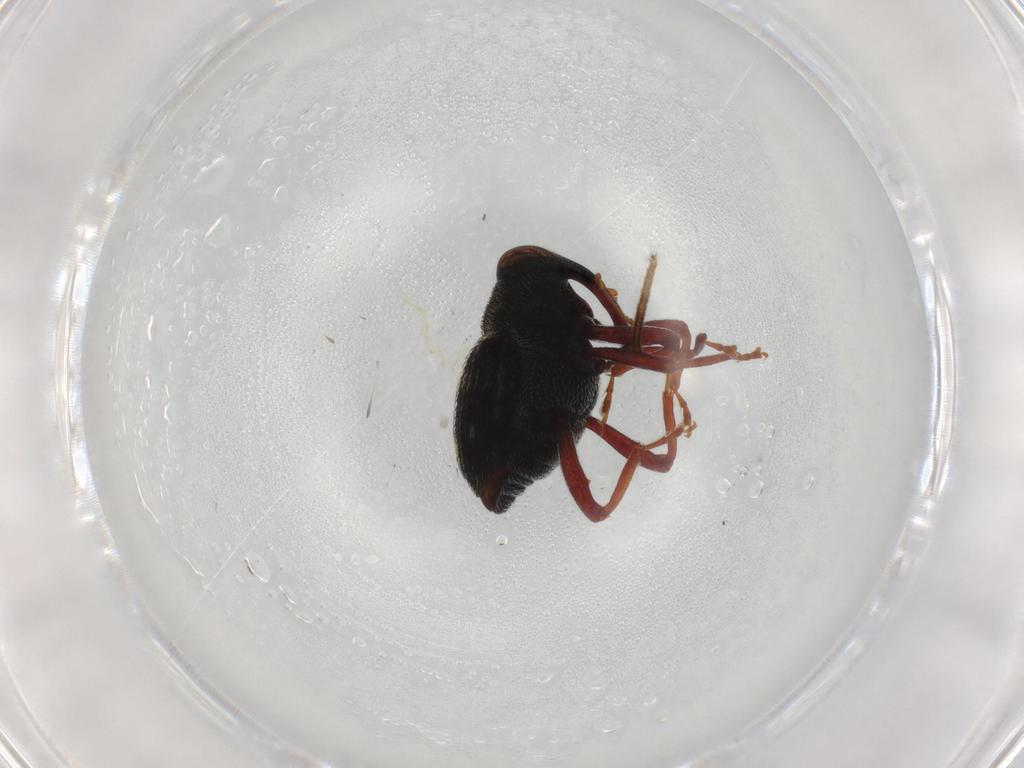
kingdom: Animalia
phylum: Arthropoda
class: Insecta
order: Coleoptera
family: Curculionidae
